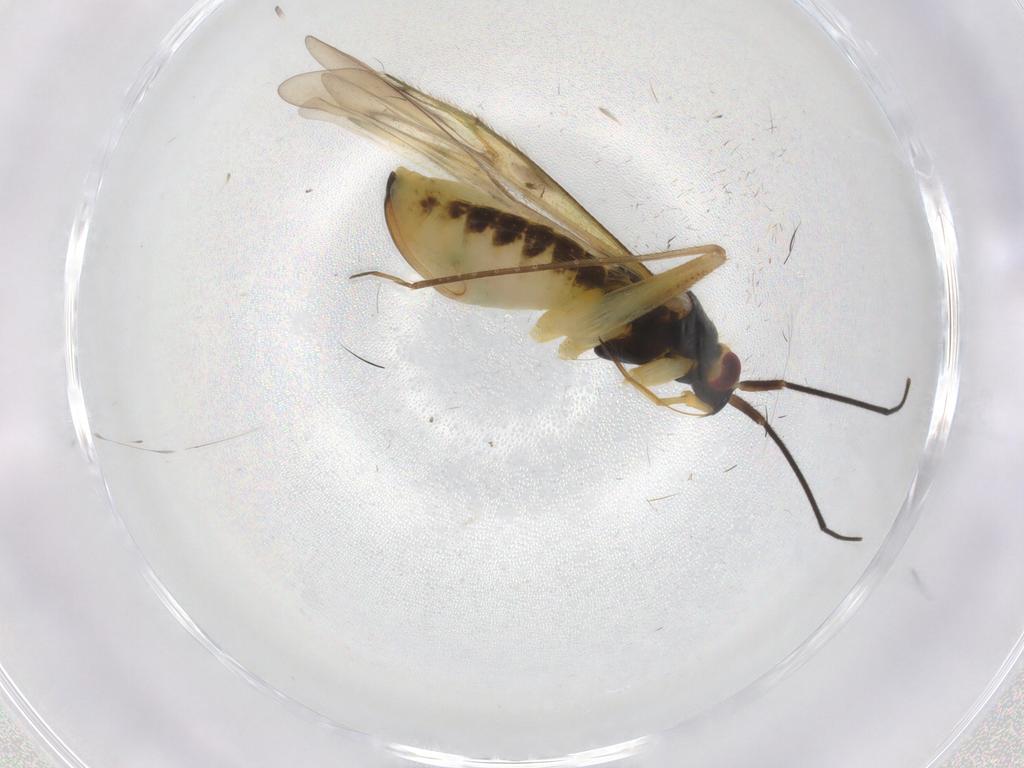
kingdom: Animalia
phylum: Arthropoda
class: Insecta
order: Hemiptera
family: Miridae
